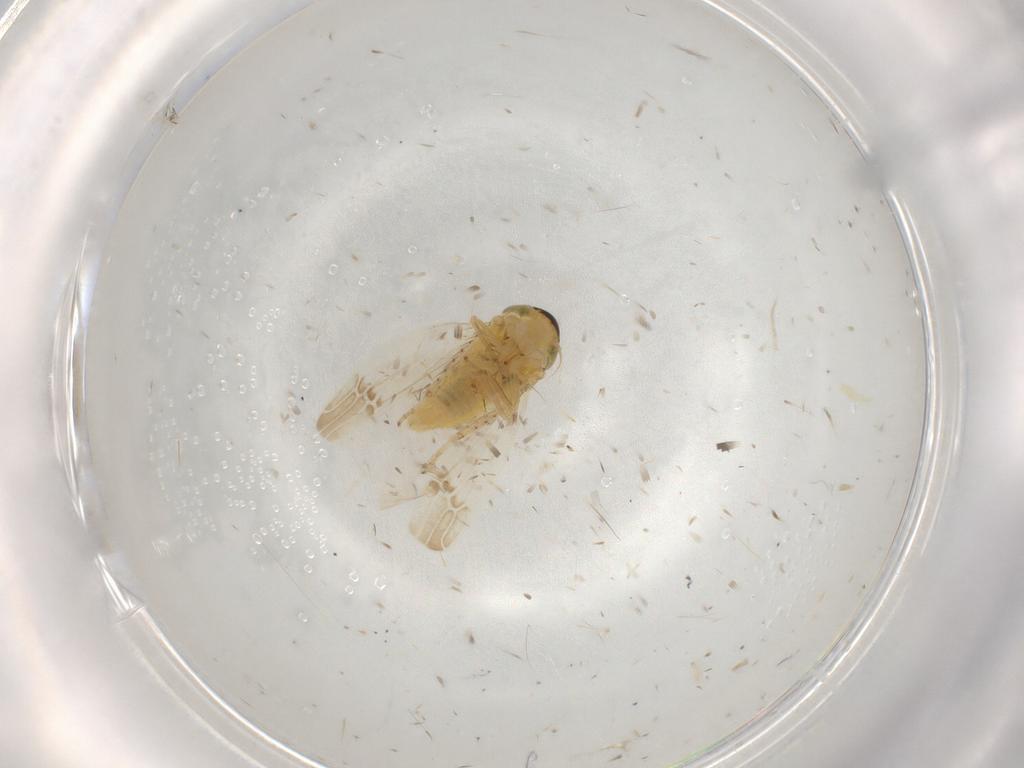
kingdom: Animalia
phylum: Arthropoda
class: Insecta
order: Hemiptera
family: Cicadellidae
